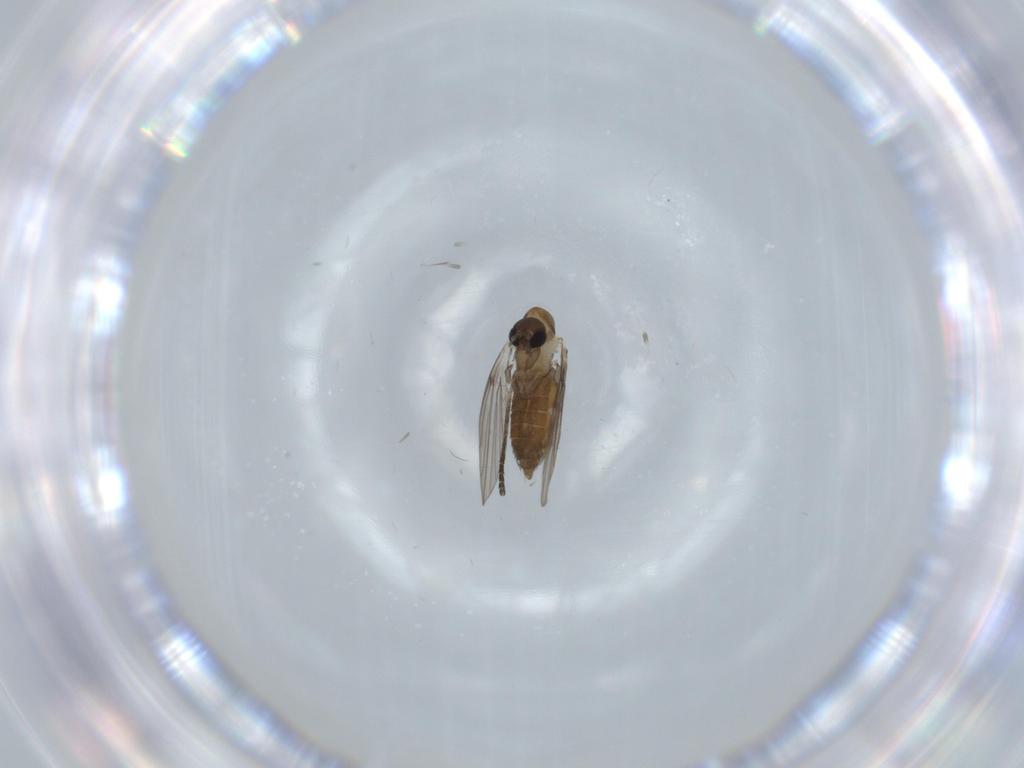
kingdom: Animalia
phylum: Arthropoda
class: Insecta
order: Diptera
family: Psychodidae
